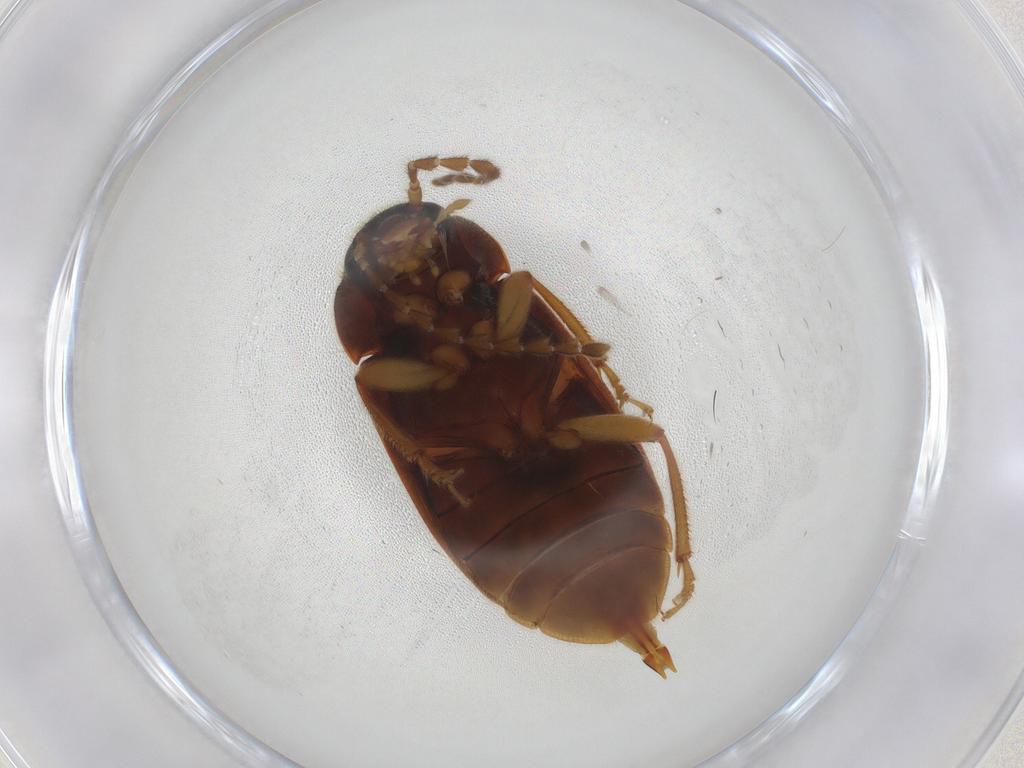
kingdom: Animalia
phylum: Arthropoda
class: Insecta
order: Coleoptera
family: Ptilodactylidae
